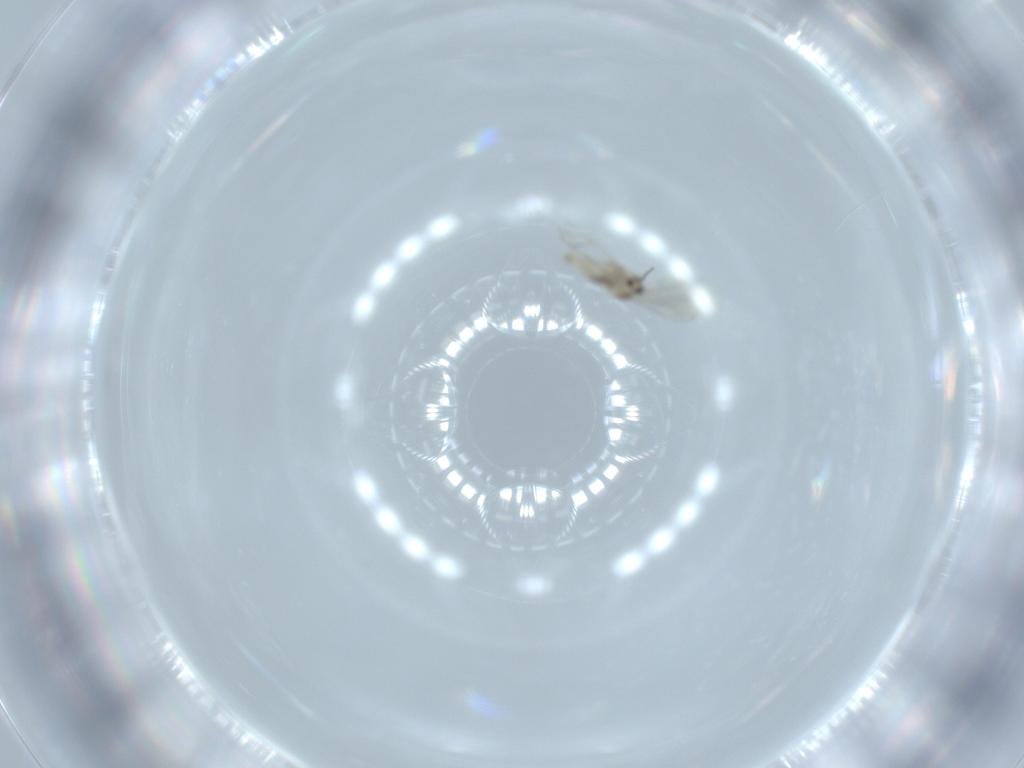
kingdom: Animalia
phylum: Arthropoda
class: Insecta
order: Diptera
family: Cecidomyiidae
